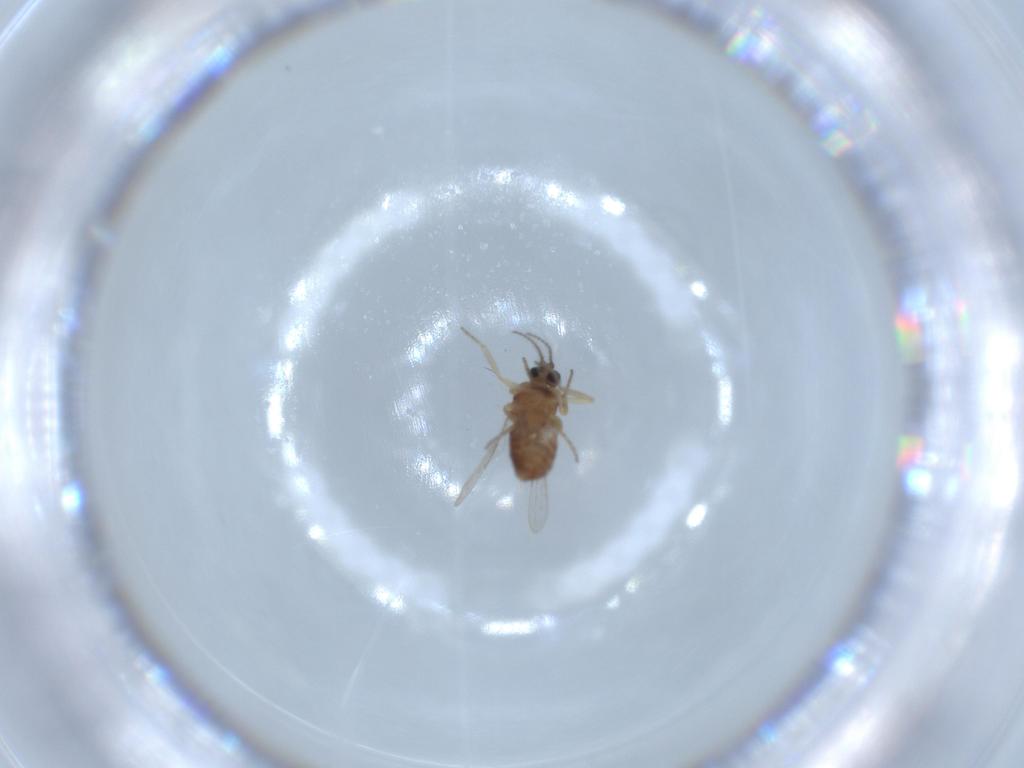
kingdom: Animalia
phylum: Arthropoda
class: Insecta
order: Diptera
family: Ceratopogonidae
